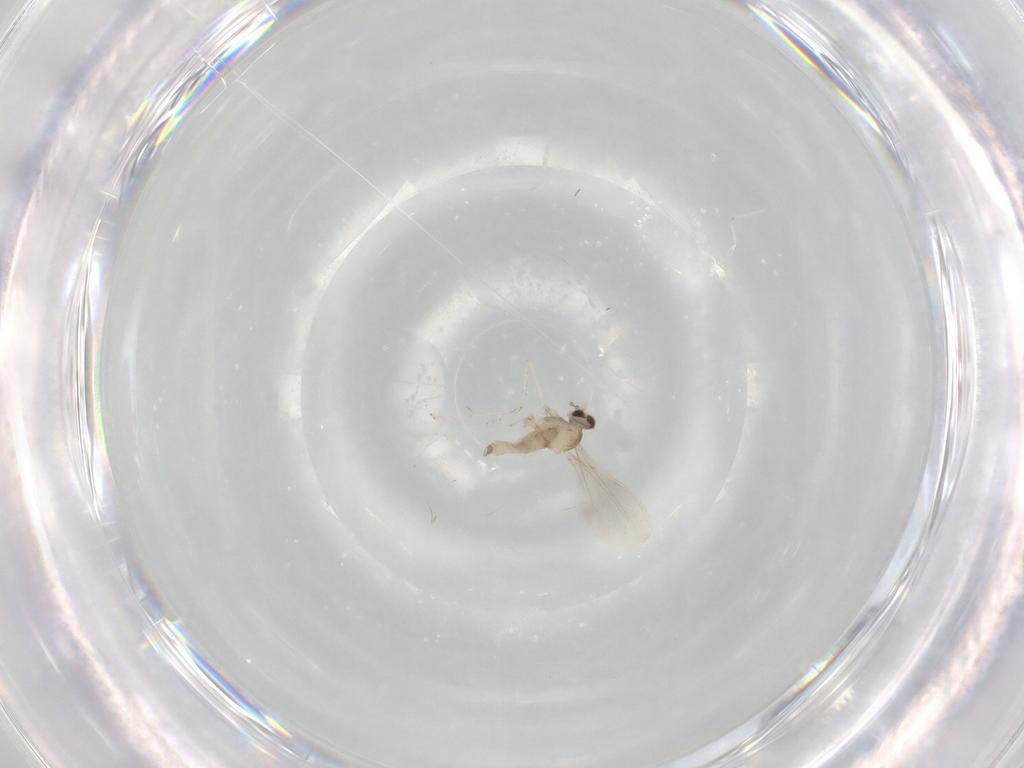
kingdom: Animalia
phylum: Arthropoda
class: Insecta
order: Diptera
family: Cecidomyiidae
